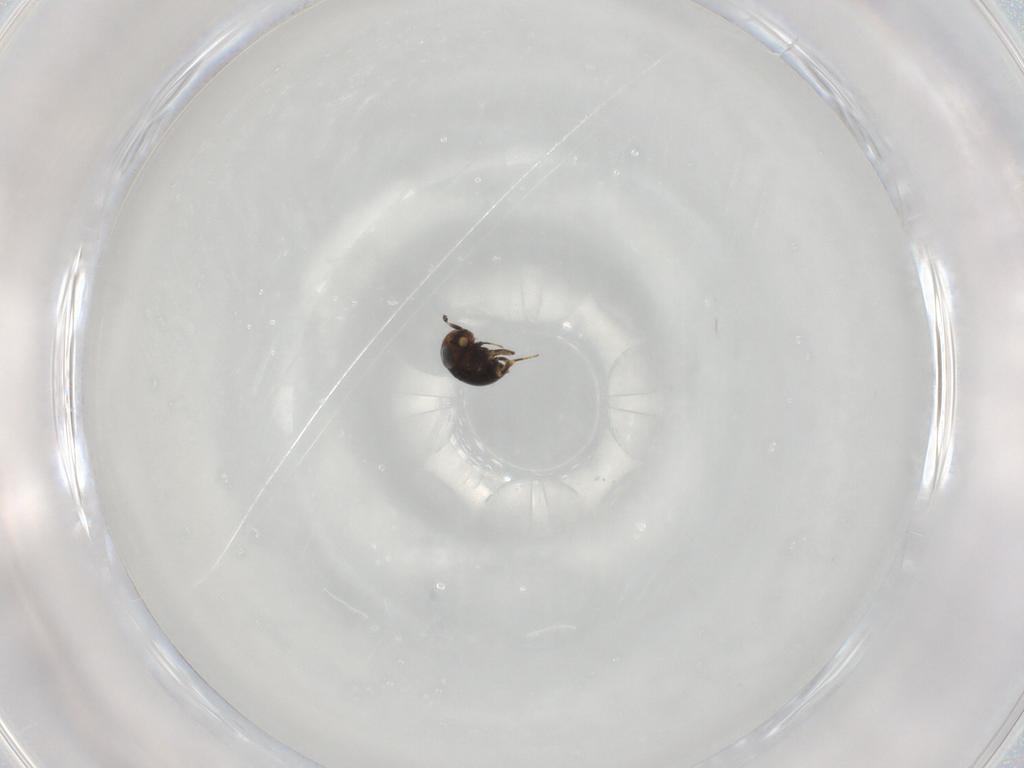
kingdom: Animalia
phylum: Arthropoda
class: Insecta
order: Hymenoptera
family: Scelionidae
